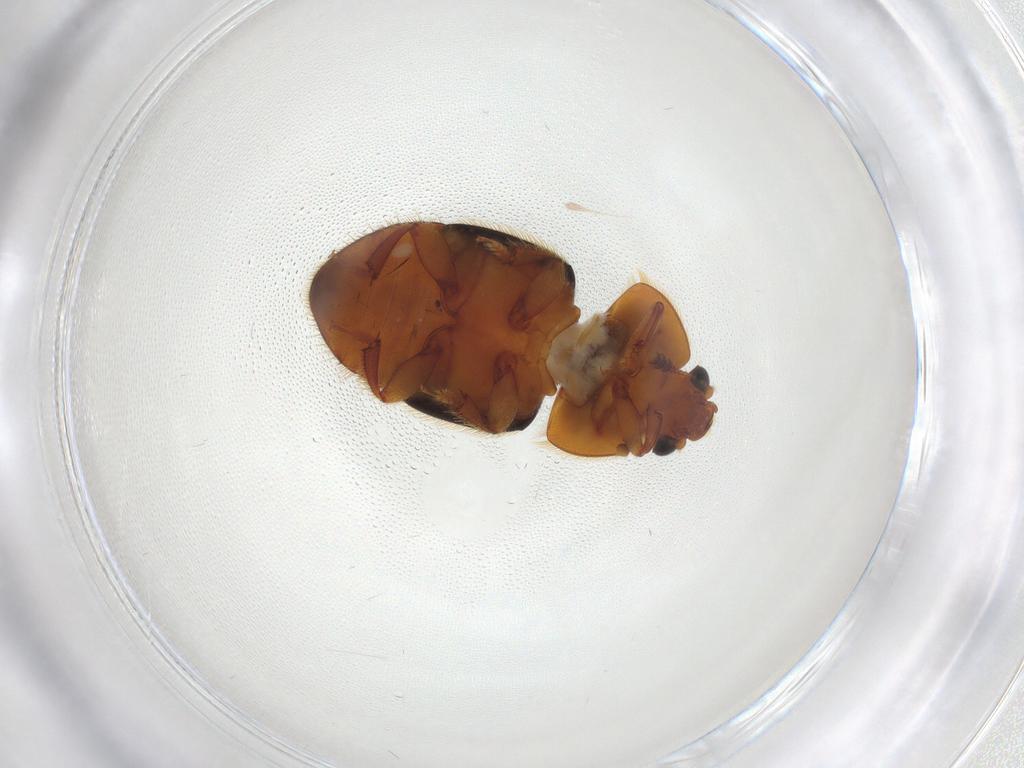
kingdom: Animalia
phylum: Arthropoda
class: Insecta
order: Coleoptera
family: Nitidulidae
